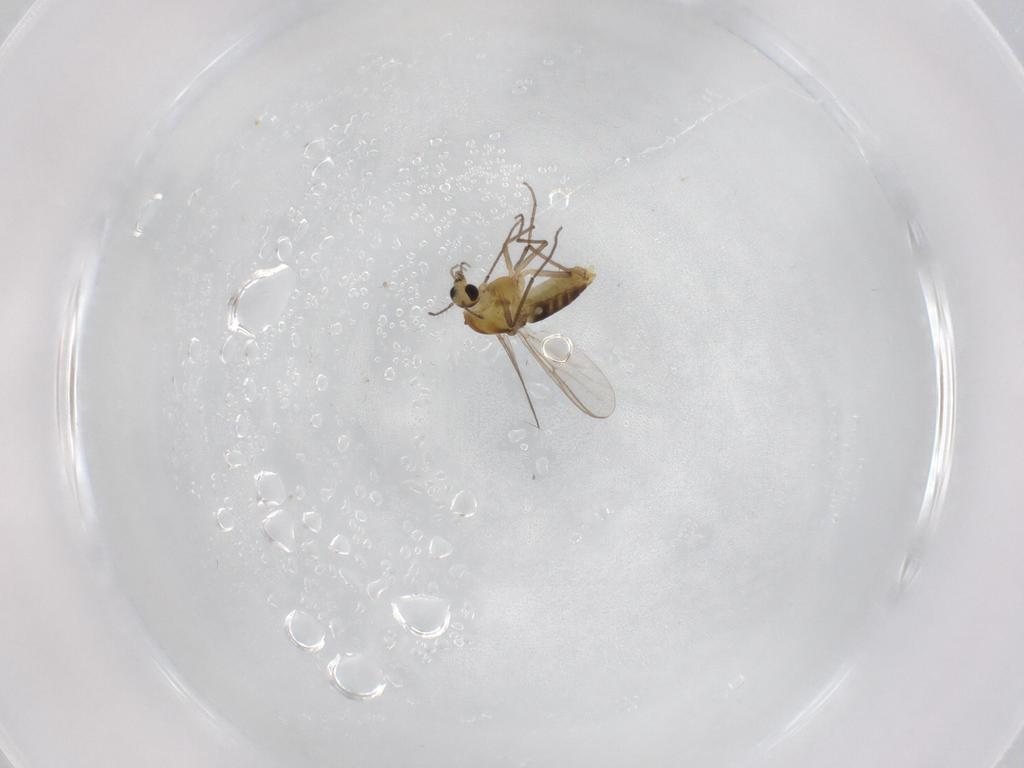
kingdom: Animalia
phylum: Arthropoda
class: Insecta
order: Diptera
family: Chironomidae
